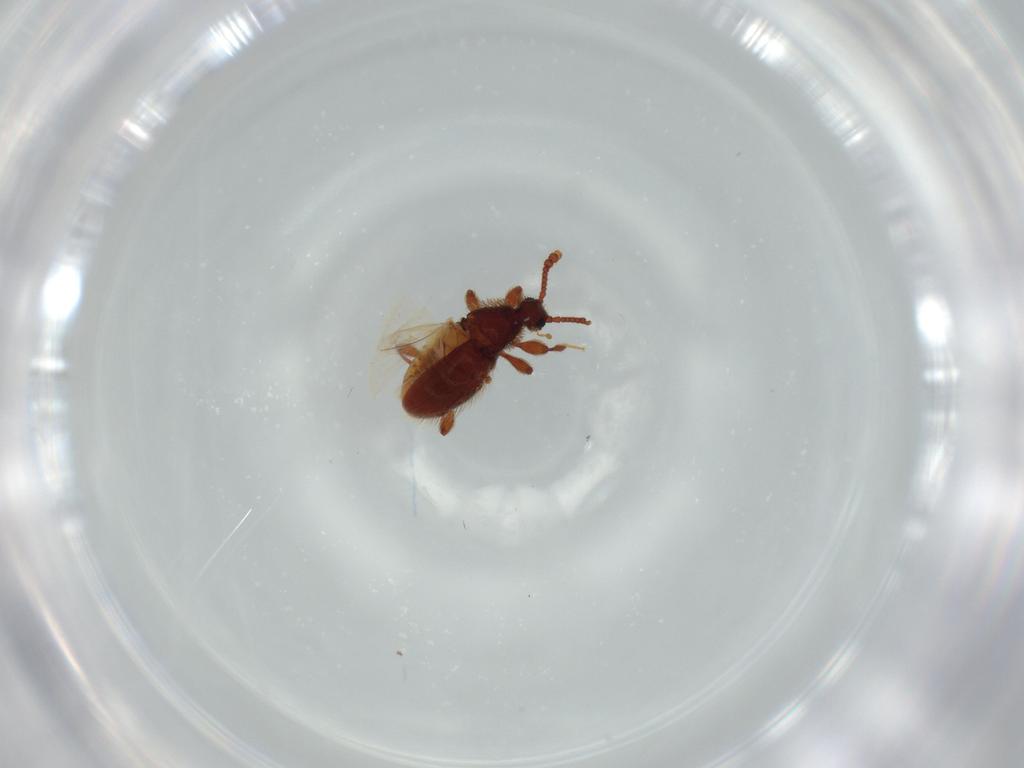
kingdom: Animalia
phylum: Arthropoda
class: Insecta
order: Coleoptera
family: Staphylinidae
